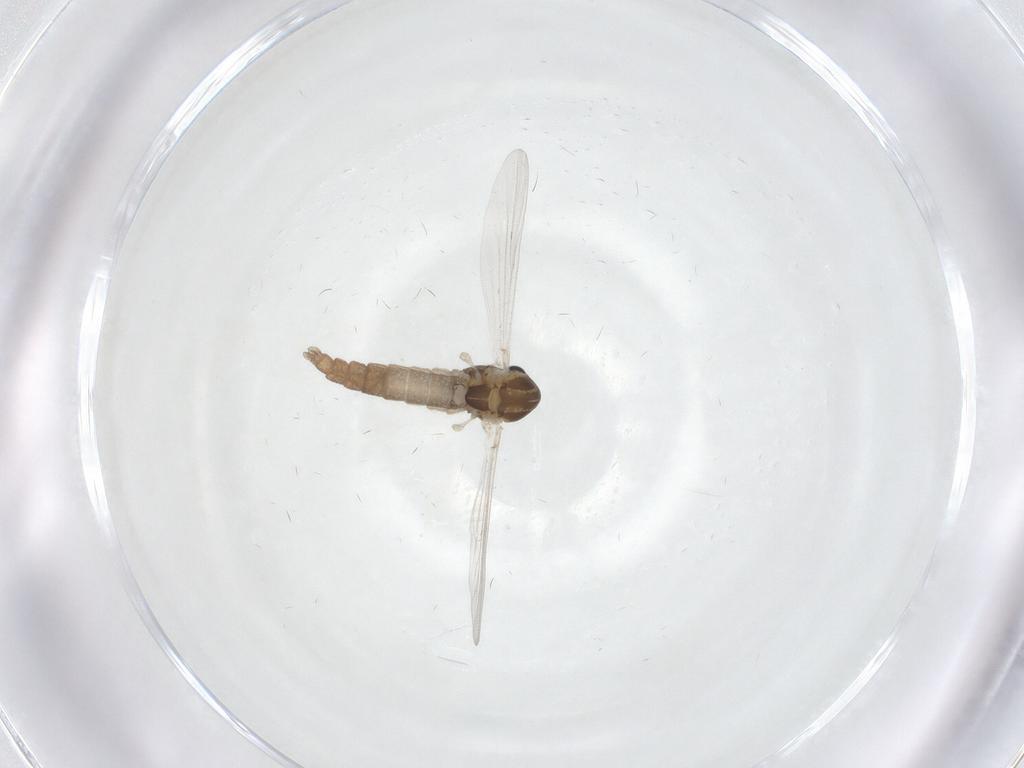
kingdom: Animalia
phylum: Arthropoda
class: Insecta
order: Diptera
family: Chironomidae
